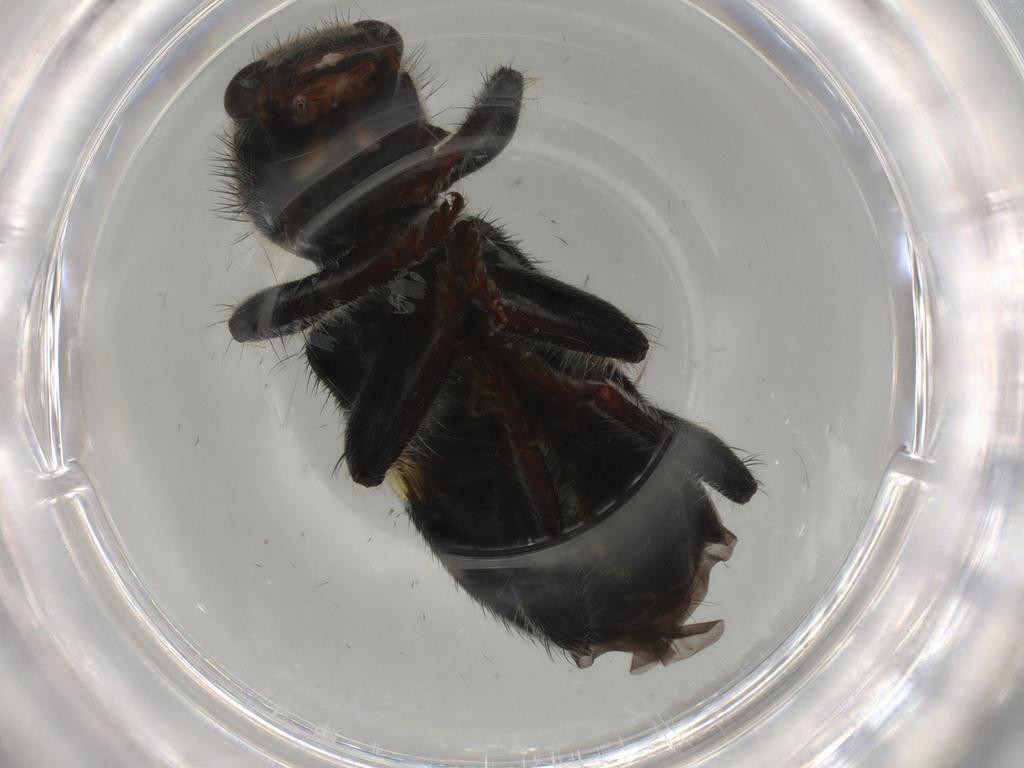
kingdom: Animalia
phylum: Arthropoda
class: Insecta
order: Coleoptera
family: Cleridae
